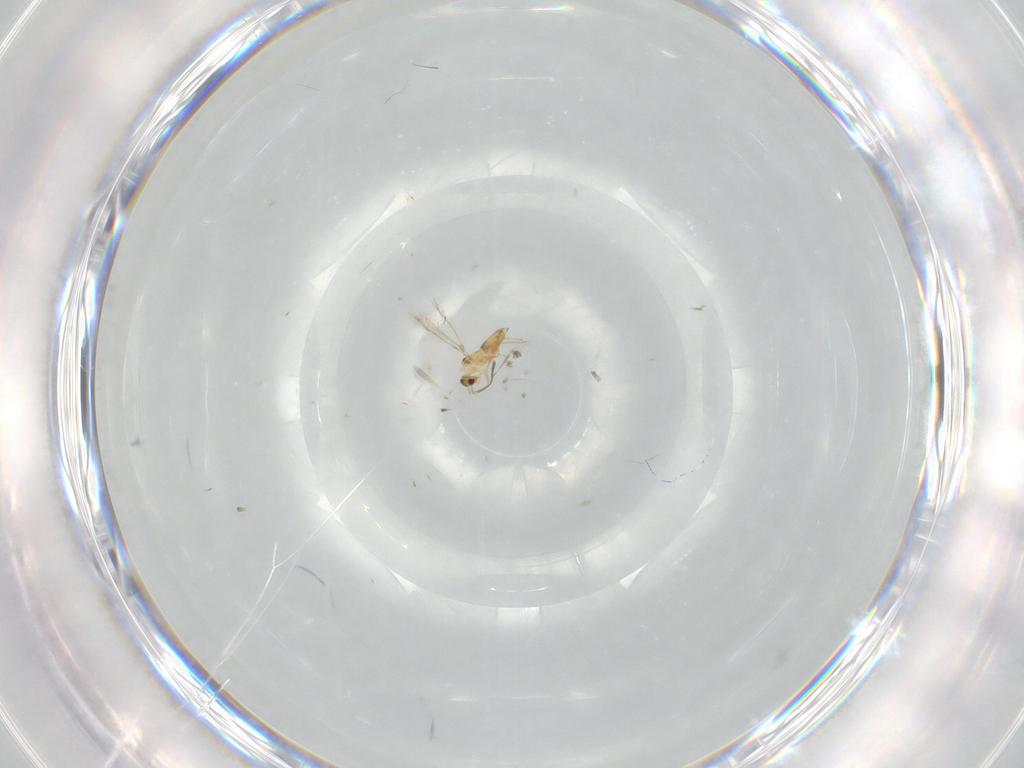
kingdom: Animalia
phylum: Arthropoda
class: Insecta
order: Hymenoptera
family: Mymaridae
